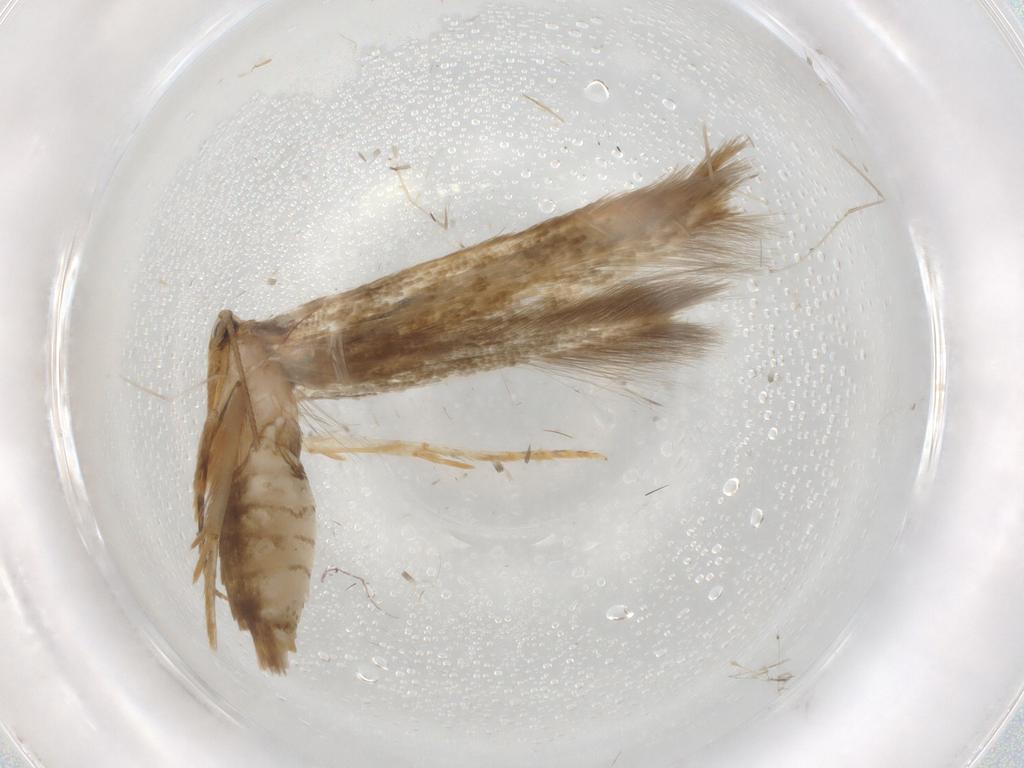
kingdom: Animalia
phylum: Arthropoda
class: Insecta
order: Lepidoptera
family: Tineidae
